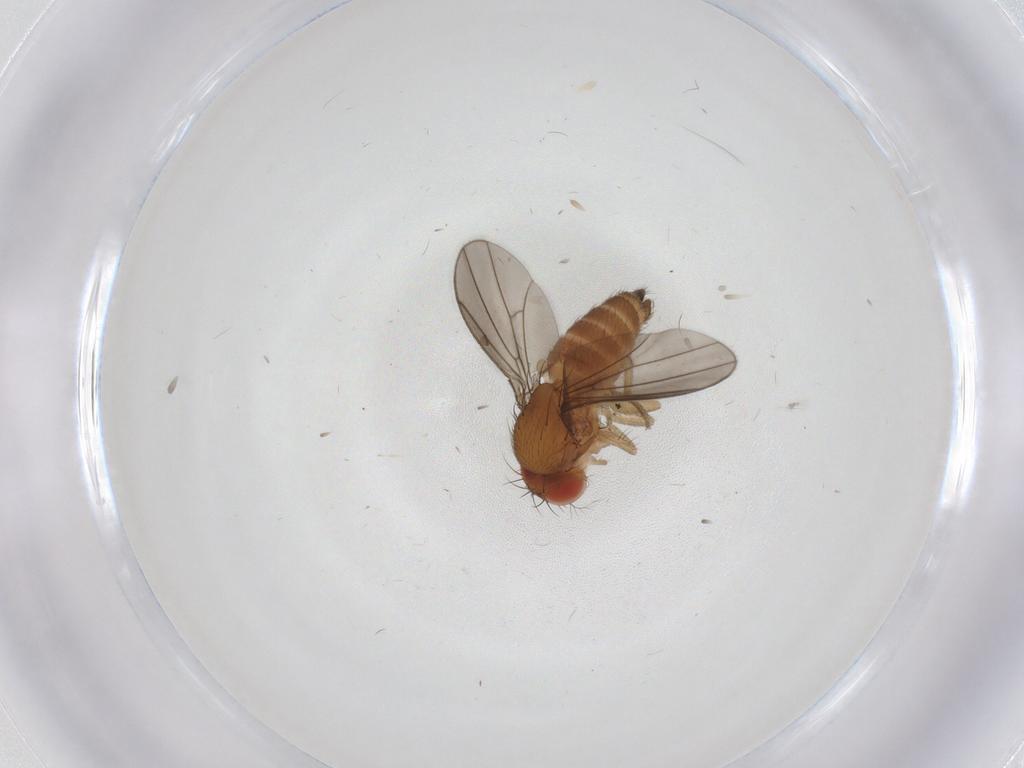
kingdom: Animalia
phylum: Arthropoda
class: Insecta
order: Diptera
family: Drosophilidae
